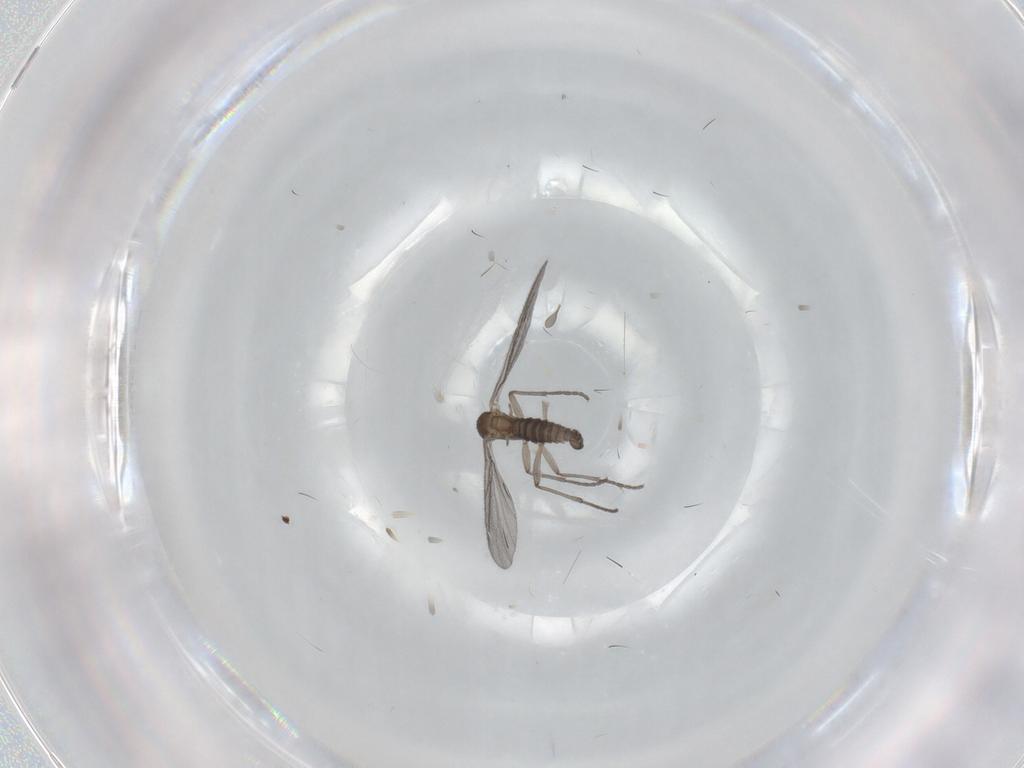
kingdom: Animalia
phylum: Arthropoda
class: Insecta
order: Diptera
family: Sciaridae
